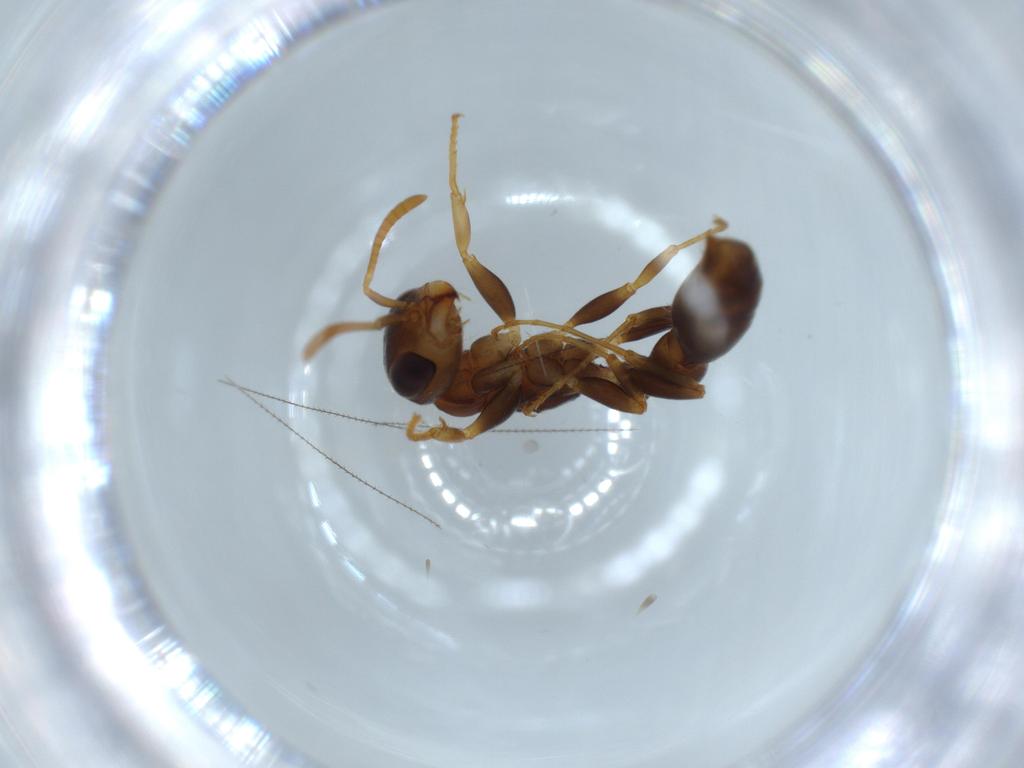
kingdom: Animalia
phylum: Arthropoda
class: Insecta
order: Hymenoptera
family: Formicidae
